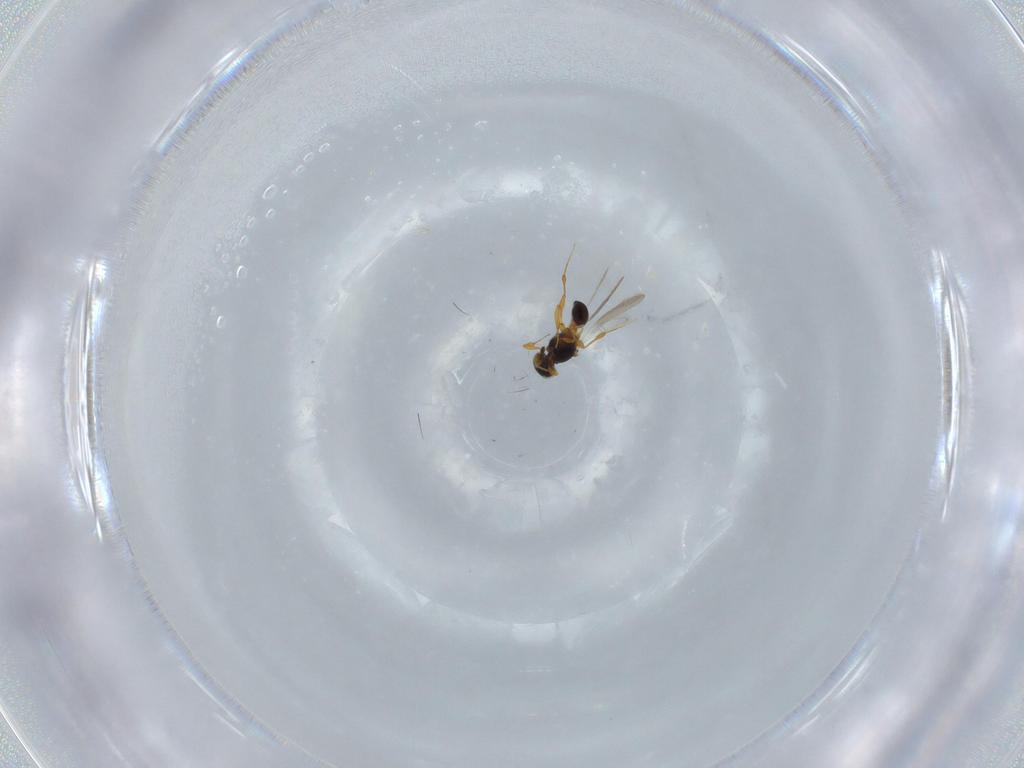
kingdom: Animalia
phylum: Arthropoda
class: Insecta
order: Hymenoptera
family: Platygastridae
